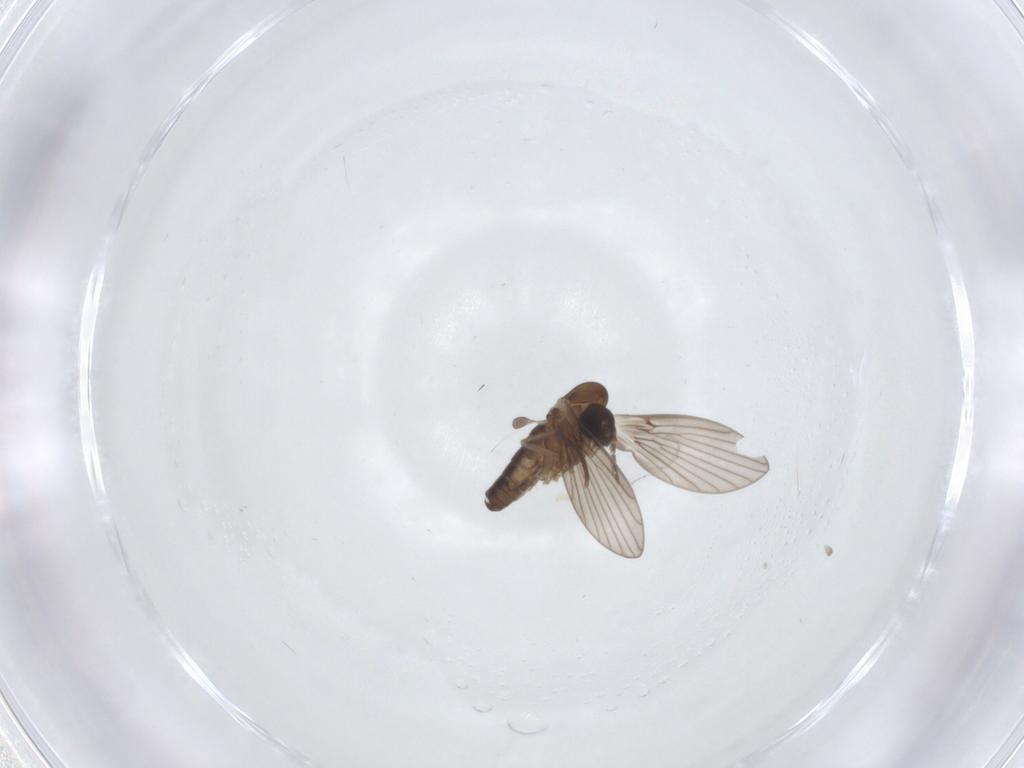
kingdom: Animalia
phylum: Arthropoda
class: Insecta
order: Diptera
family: Psychodidae
